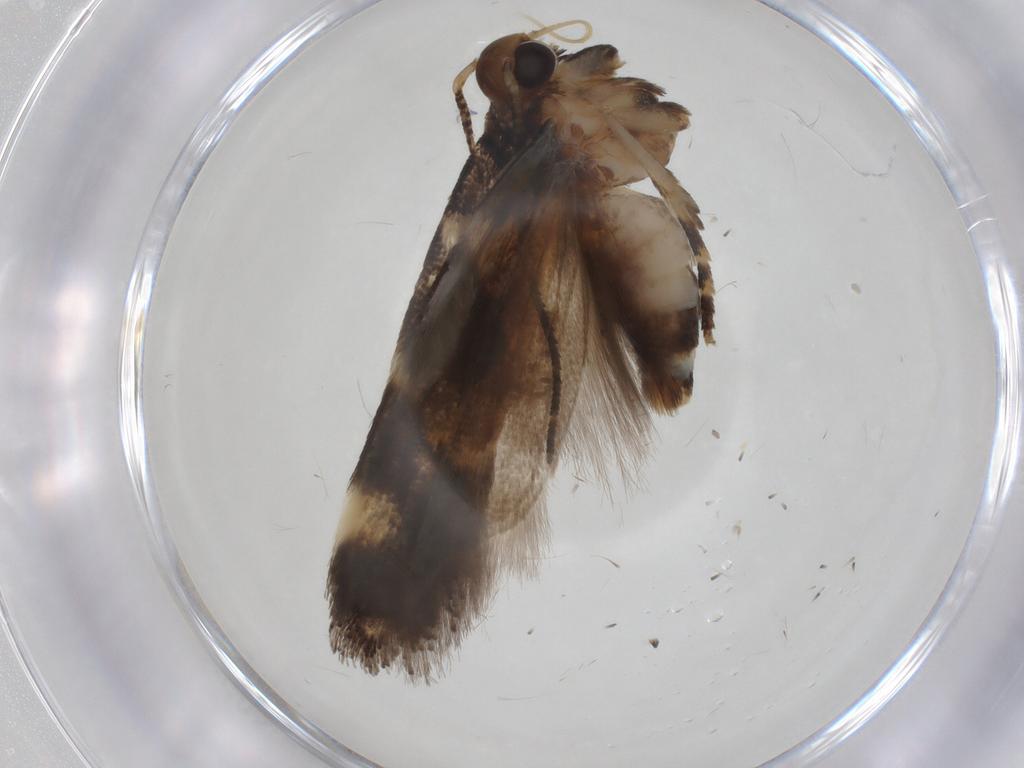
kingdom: Animalia
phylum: Arthropoda
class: Insecta
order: Lepidoptera
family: Gelechiidae
